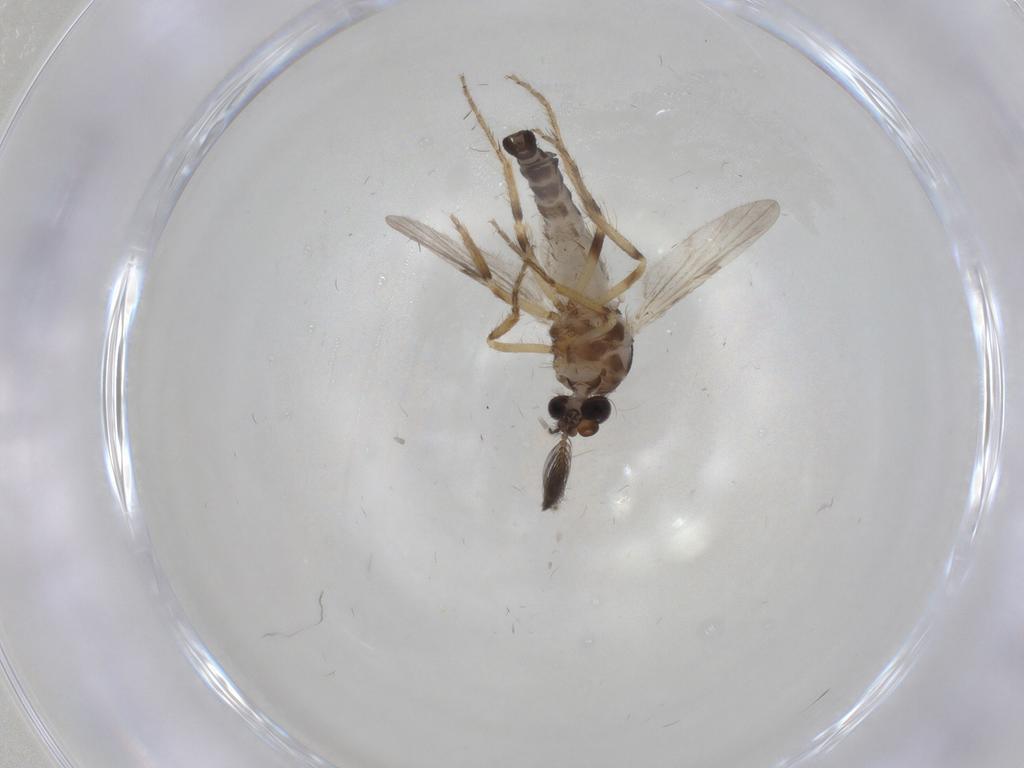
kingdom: Animalia
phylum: Arthropoda
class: Insecta
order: Diptera
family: Ceratopogonidae
